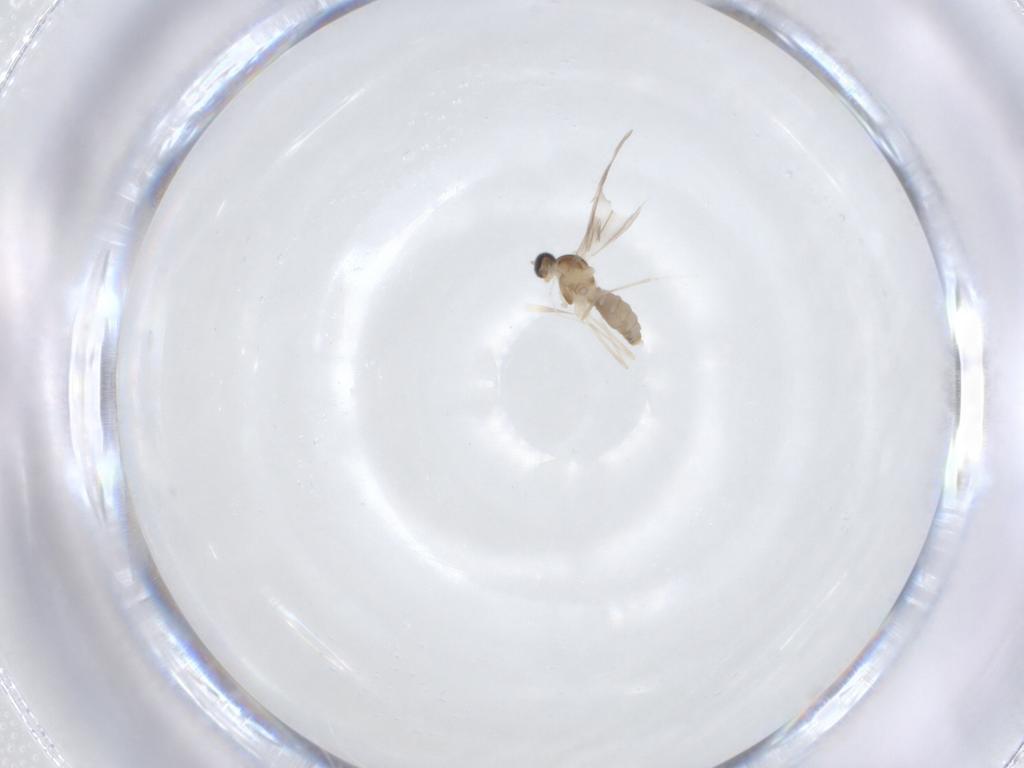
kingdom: Animalia
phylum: Arthropoda
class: Insecta
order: Diptera
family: Cecidomyiidae
